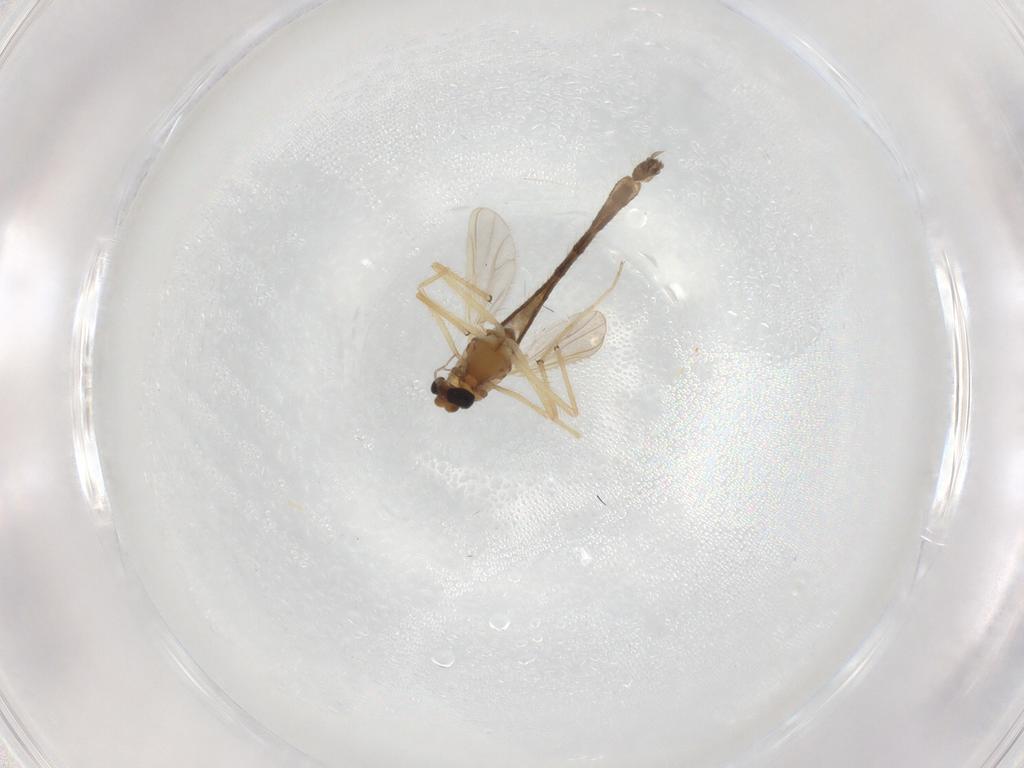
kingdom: Animalia
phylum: Arthropoda
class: Insecta
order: Diptera
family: Chironomidae
